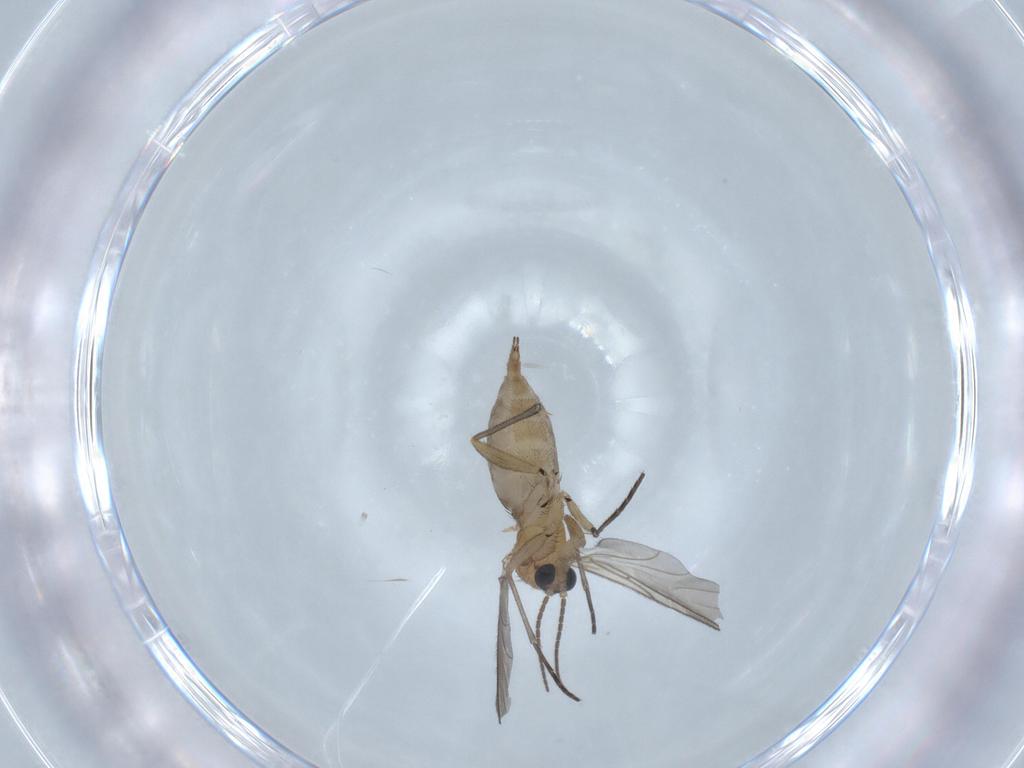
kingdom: Animalia
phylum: Arthropoda
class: Insecta
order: Diptera
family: Sciaridae
